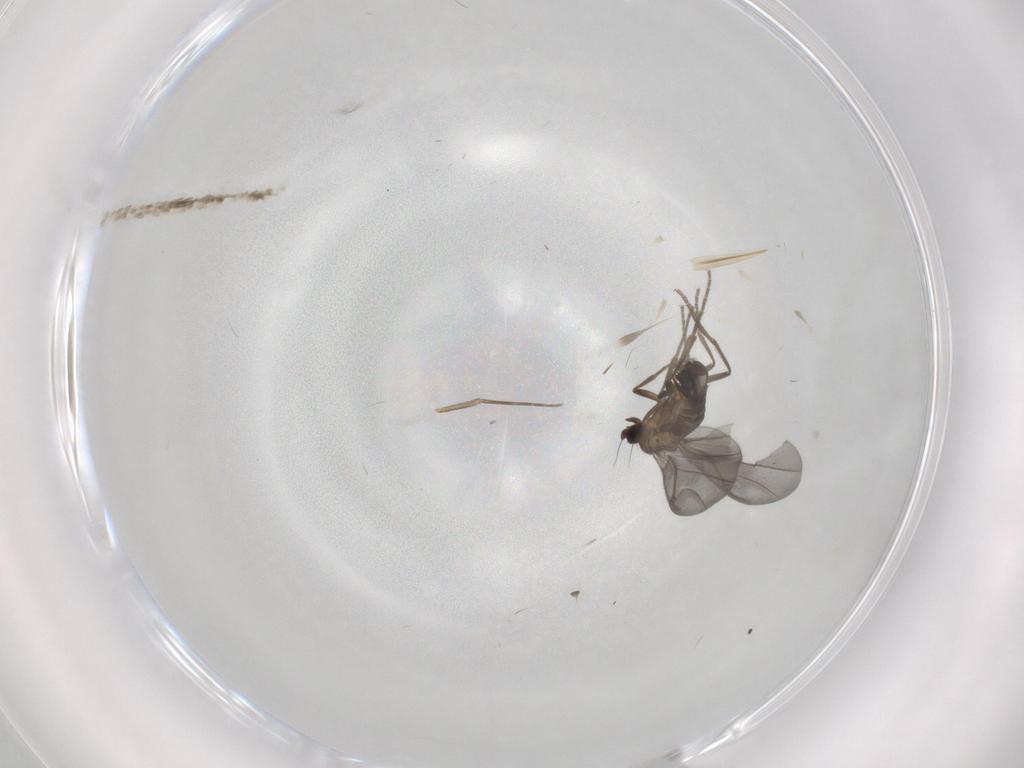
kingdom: Animalia
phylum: Arthropoda
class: Insecta
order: Diptera
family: Phoridae
